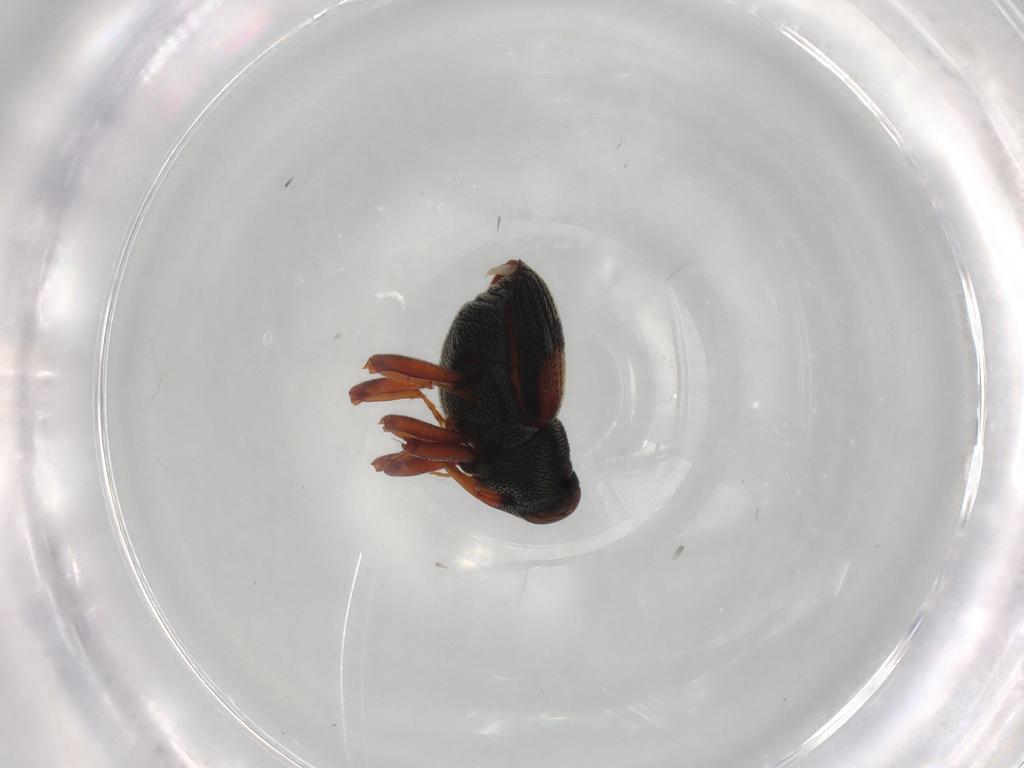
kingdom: Animalia
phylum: Arthropoda
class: Insecta
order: Coleoptera
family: Curculionidae
